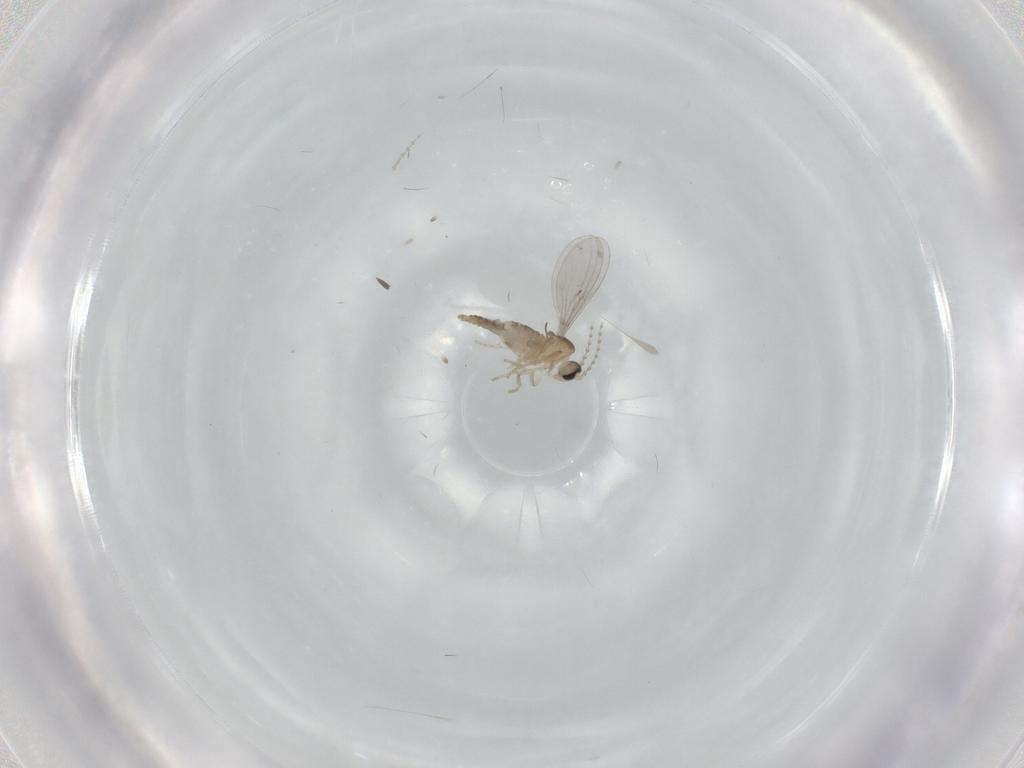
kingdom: Animalia
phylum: Arthropoda
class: Insecta
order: Diptera
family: Cecidomyiidae
